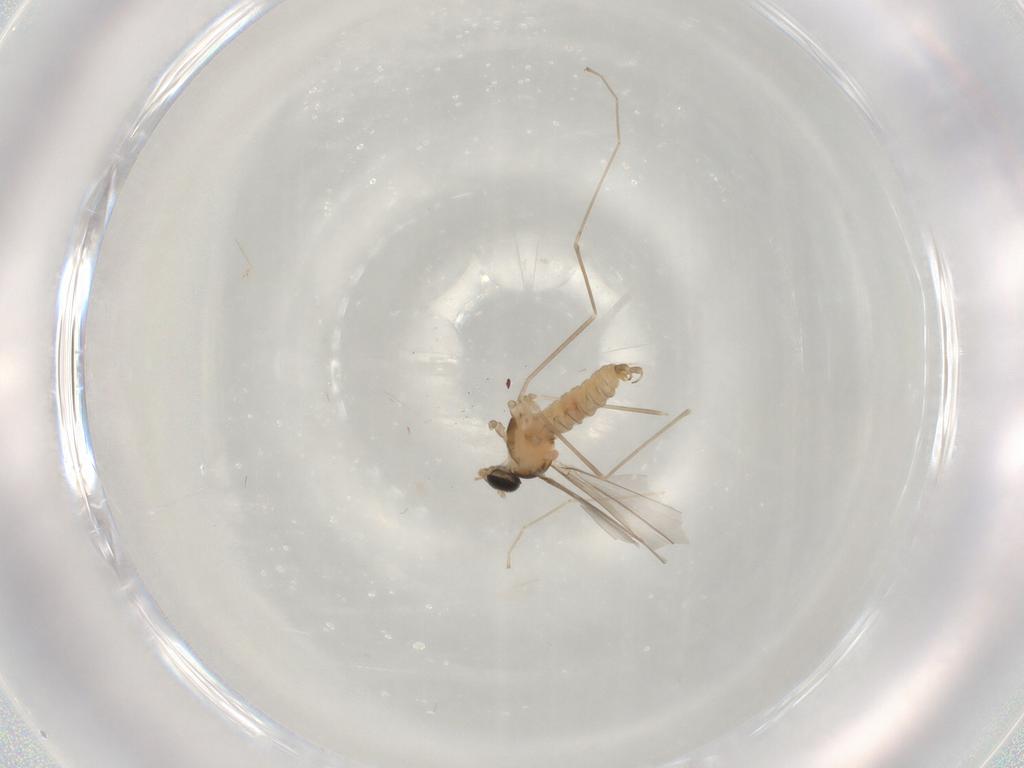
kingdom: Animalia
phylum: Arthropoda
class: Insecta
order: Diptera
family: Cecidomyiidae
